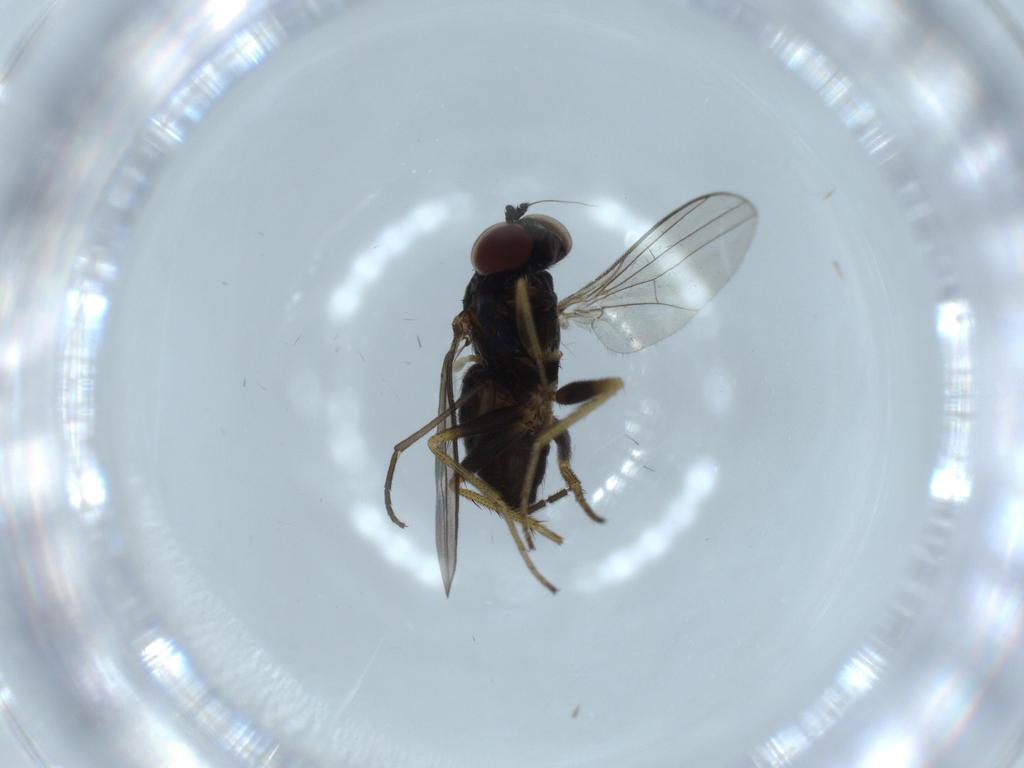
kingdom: Animalia
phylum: Arthropoda
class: Insecta
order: Diptera
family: Sciaridae
